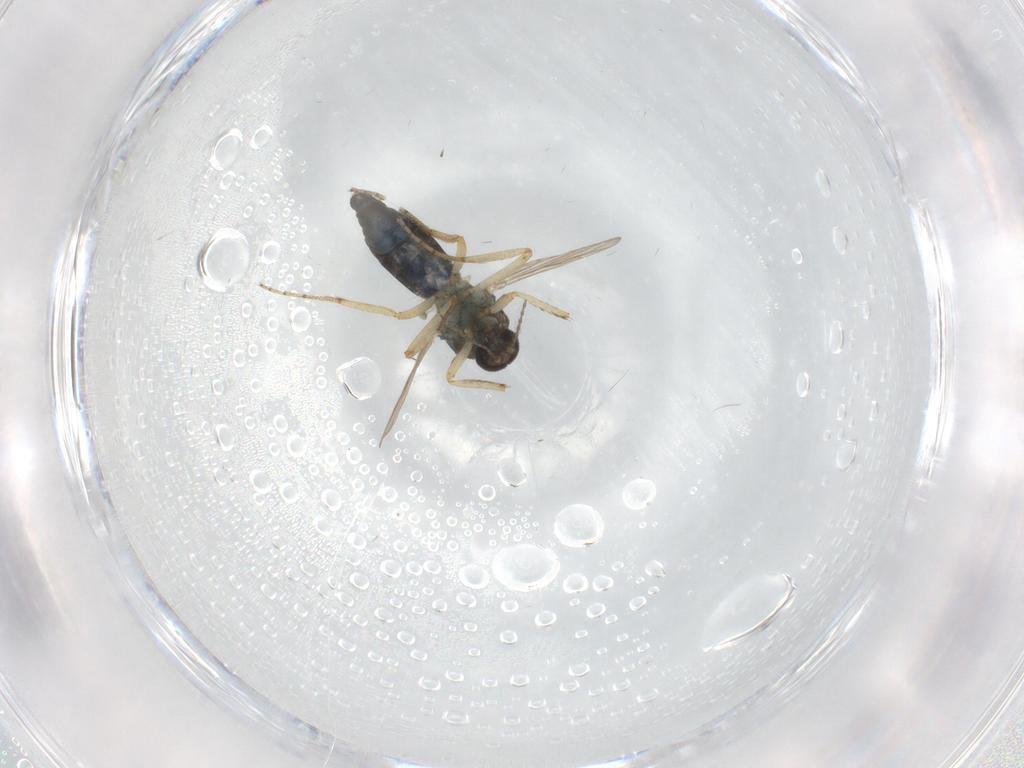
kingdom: Animalia
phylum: Arthropoda
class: Insecta
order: Diptera
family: Ceratopogonidae
